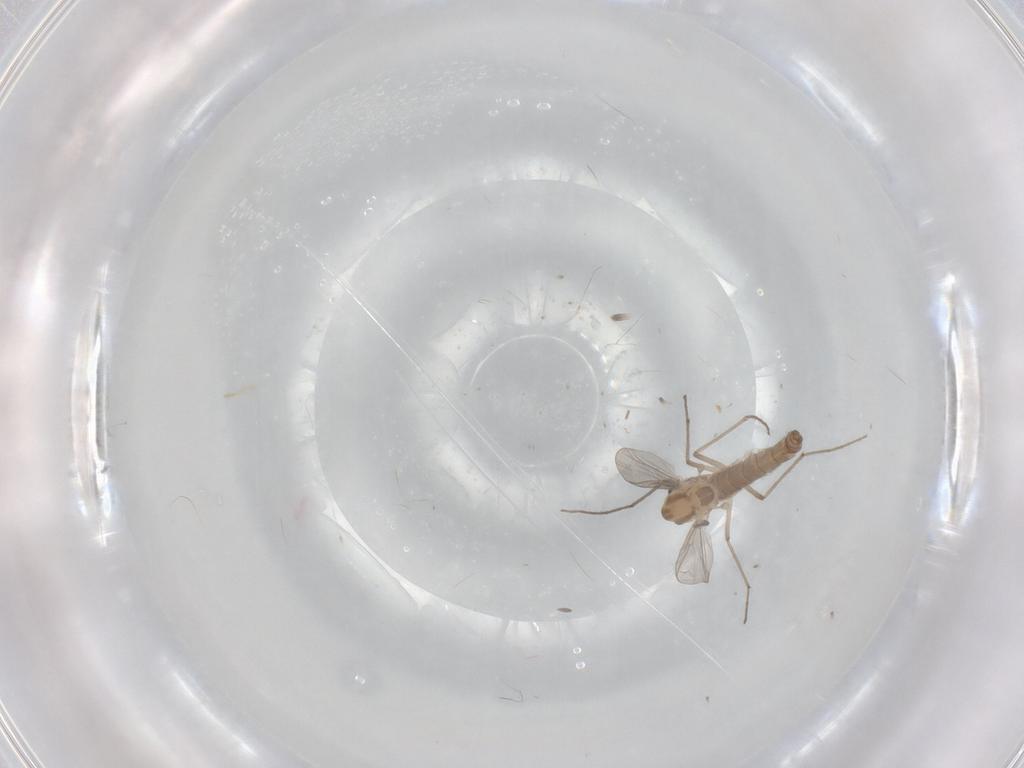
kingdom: Animalia
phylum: Arthropoda
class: Insecta
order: Diptera
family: Chironomidae
